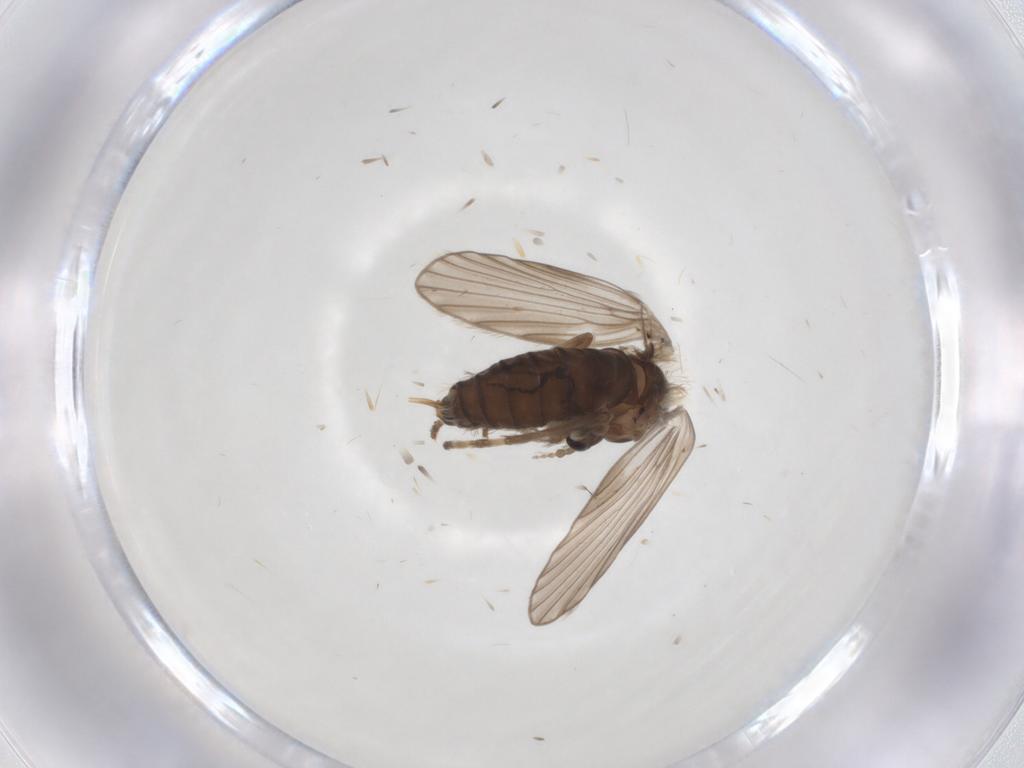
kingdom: Animalia
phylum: Arthropoda
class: Insecta
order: Diptera
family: Psychodidae
